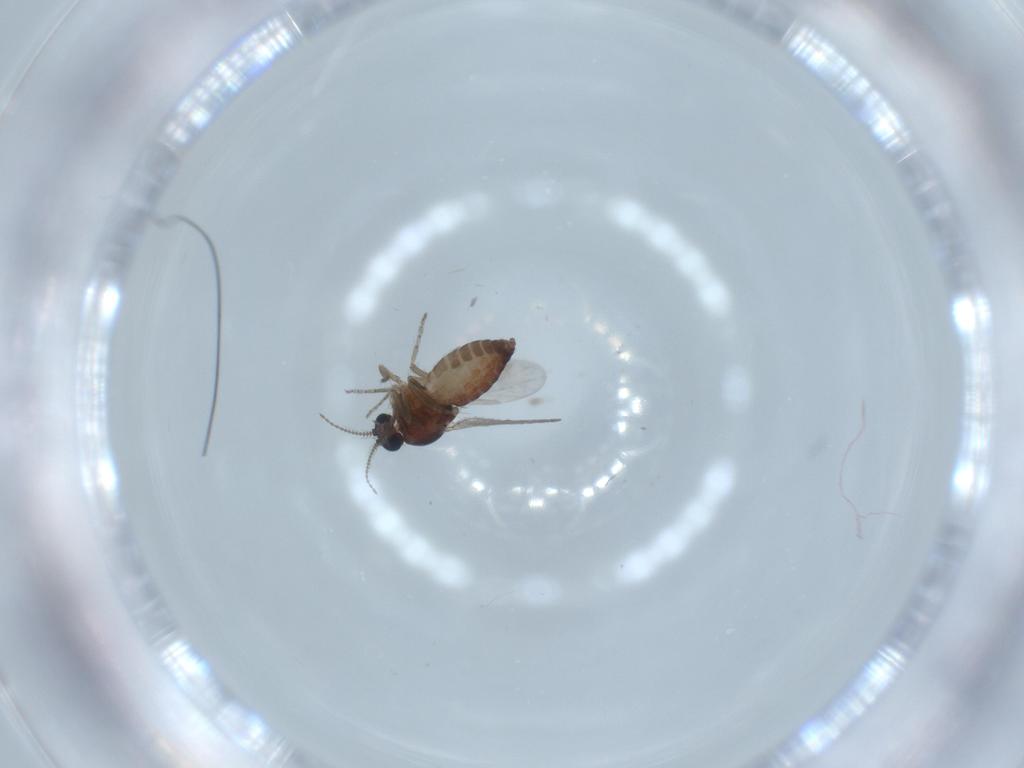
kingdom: Animalia
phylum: Arthropoda
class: Insecta
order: Diptera
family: Ceratopogonidae
